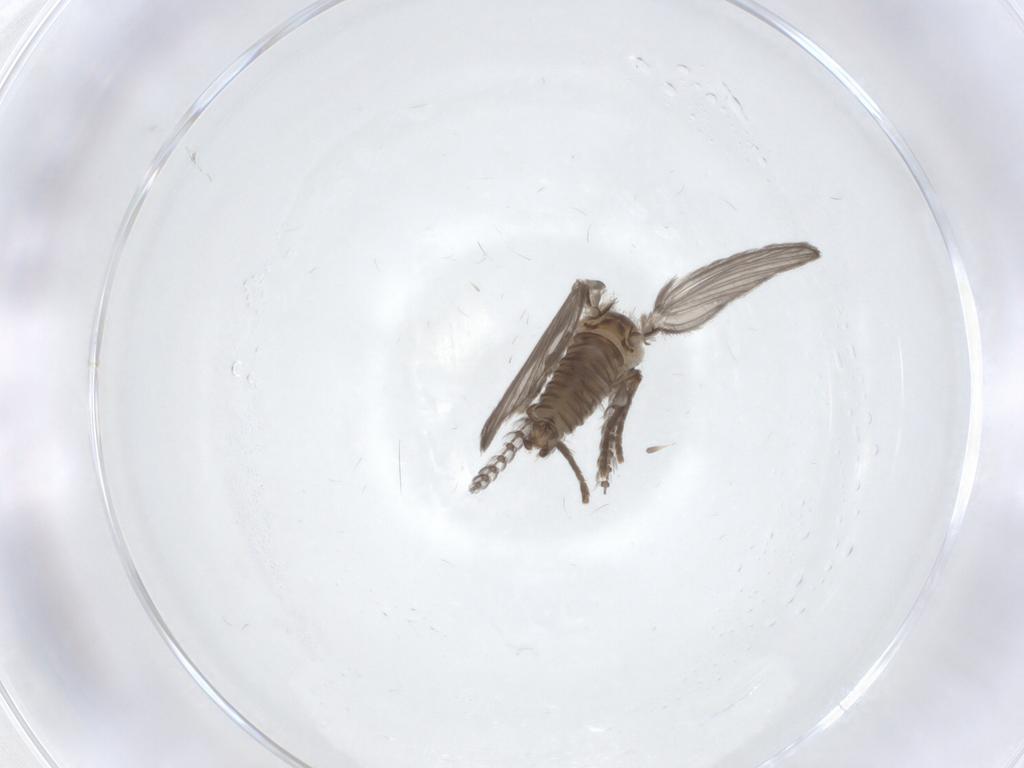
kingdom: Animalia
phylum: Arthropoda
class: Insecta
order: Diptera
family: Psychodidae
